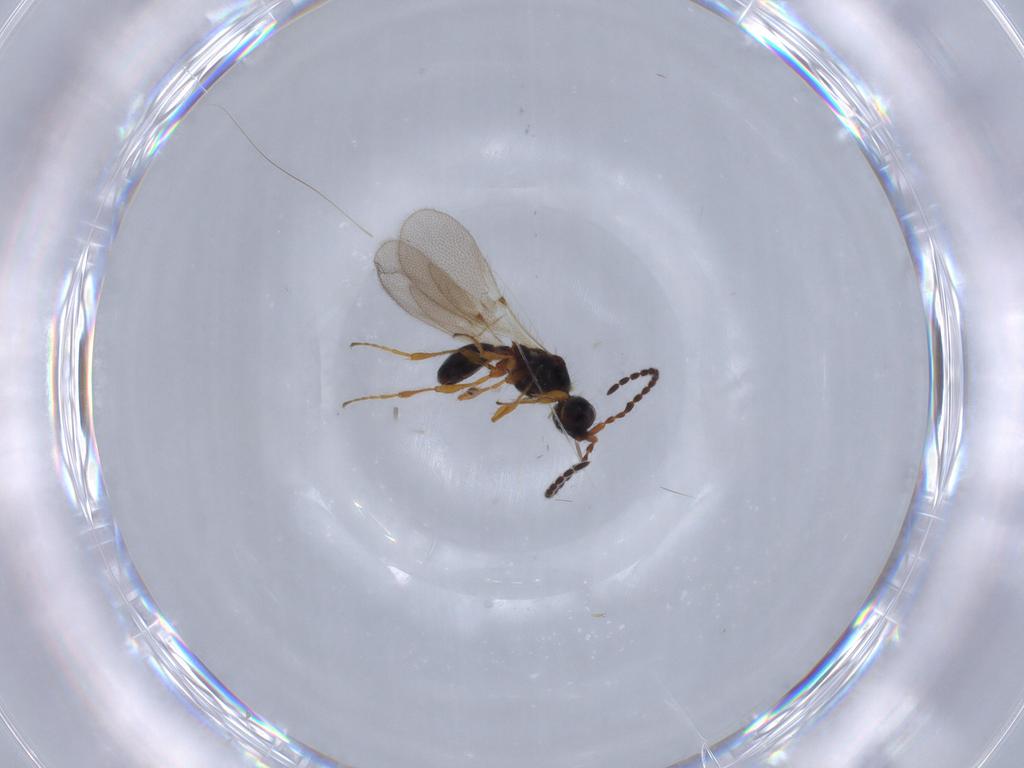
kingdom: Animalia
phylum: Arthropoda
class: Insecta
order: Hymenoptera
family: Diapriidae
